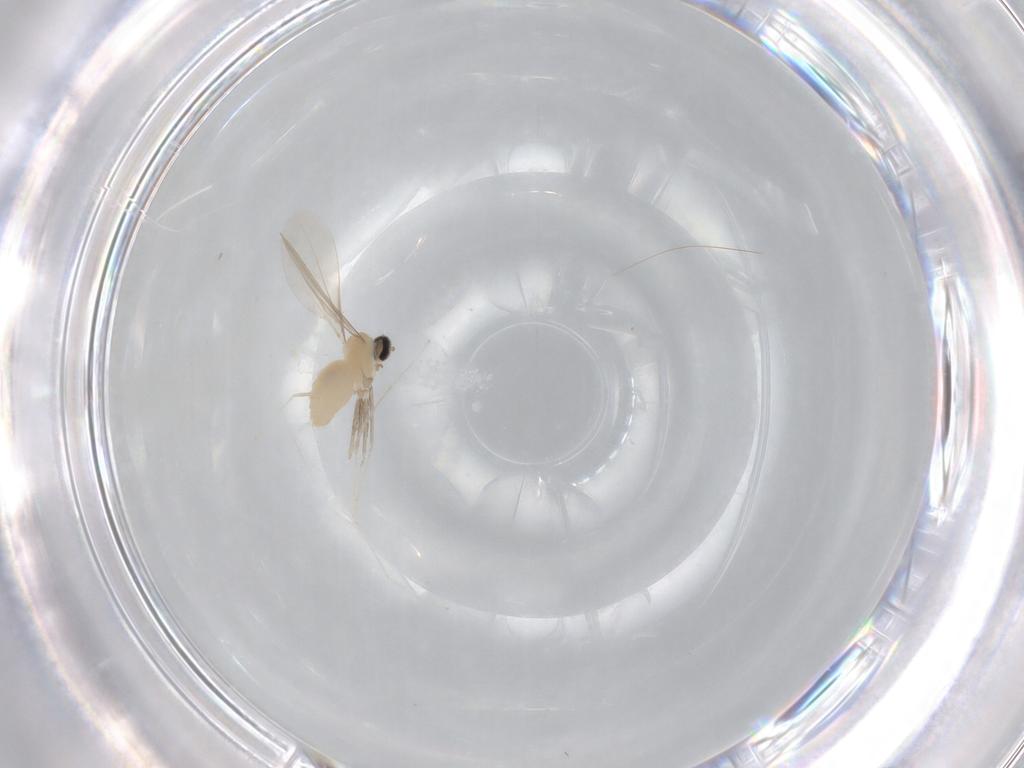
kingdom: Animalia
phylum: Arthropoda
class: Insecta
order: Diptera
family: Cecidomyiidae
